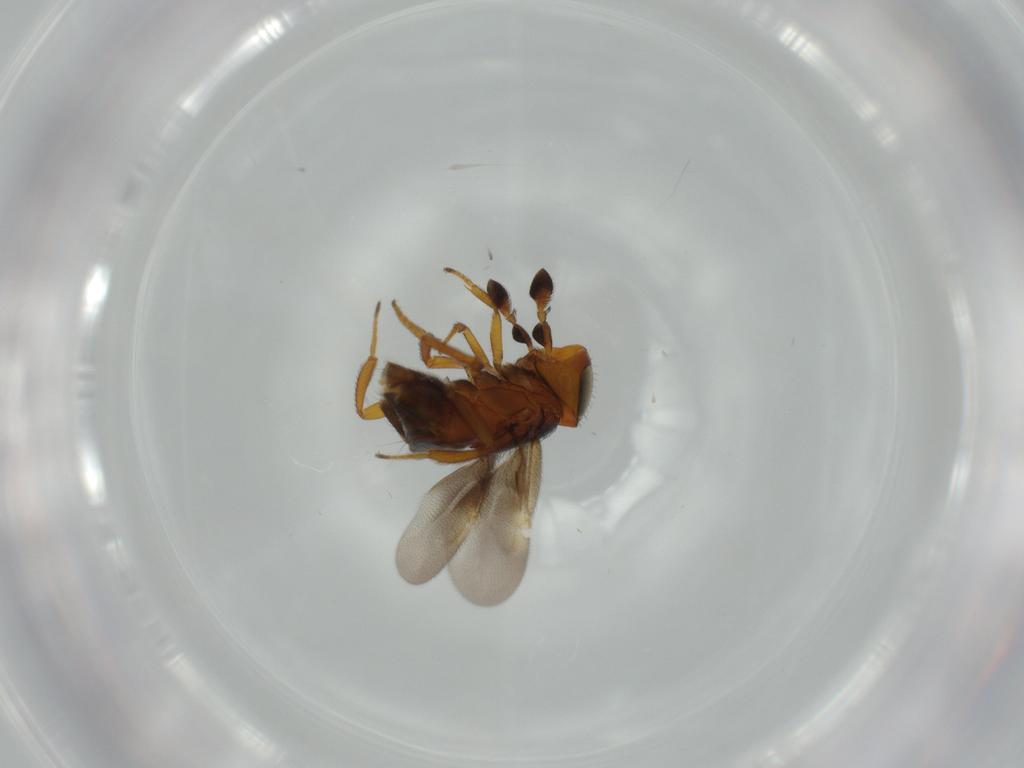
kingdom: Animalia
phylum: Arthropoda
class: Insecta
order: Hymenoptera
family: Encyrtidae
